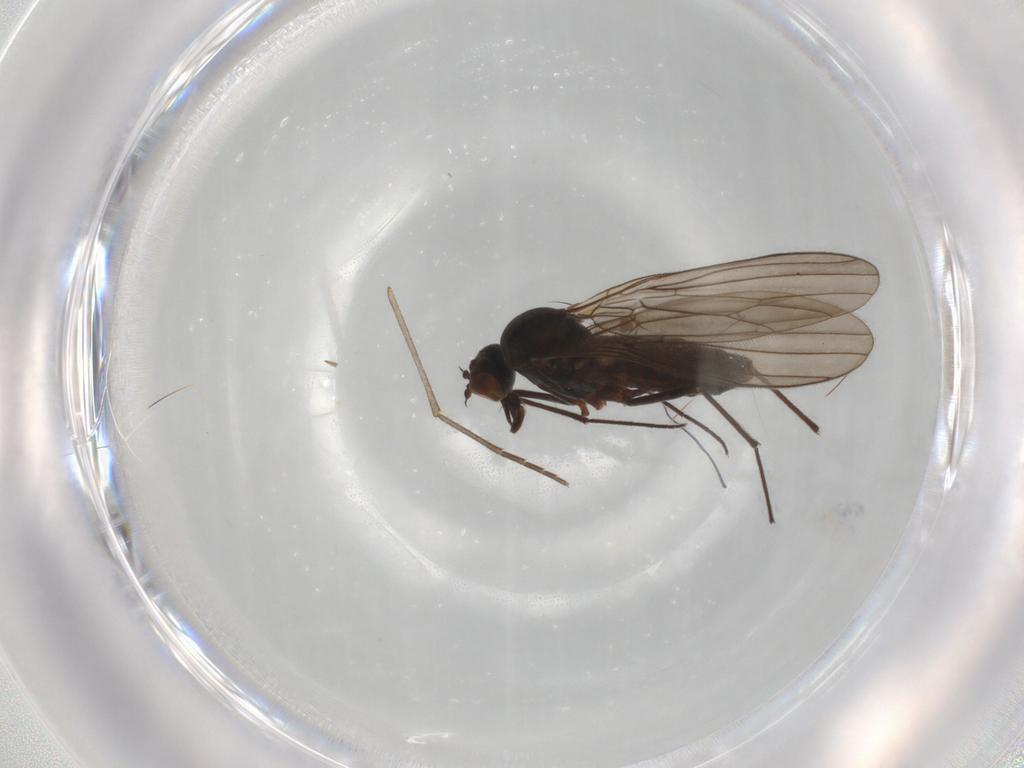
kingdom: Animalia
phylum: Arthropoda
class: Insecta
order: Diptera
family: Brachystomatidae
